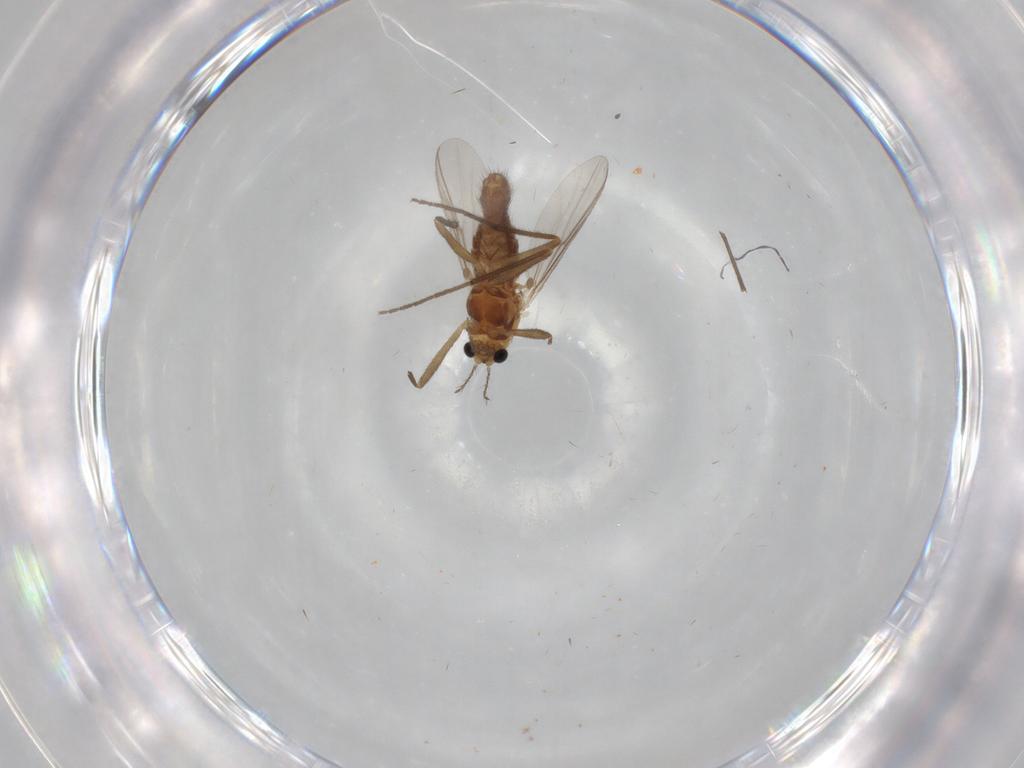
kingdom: Animalia
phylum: Arthropoda
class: Insecta
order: Diptera
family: Chironomidae
